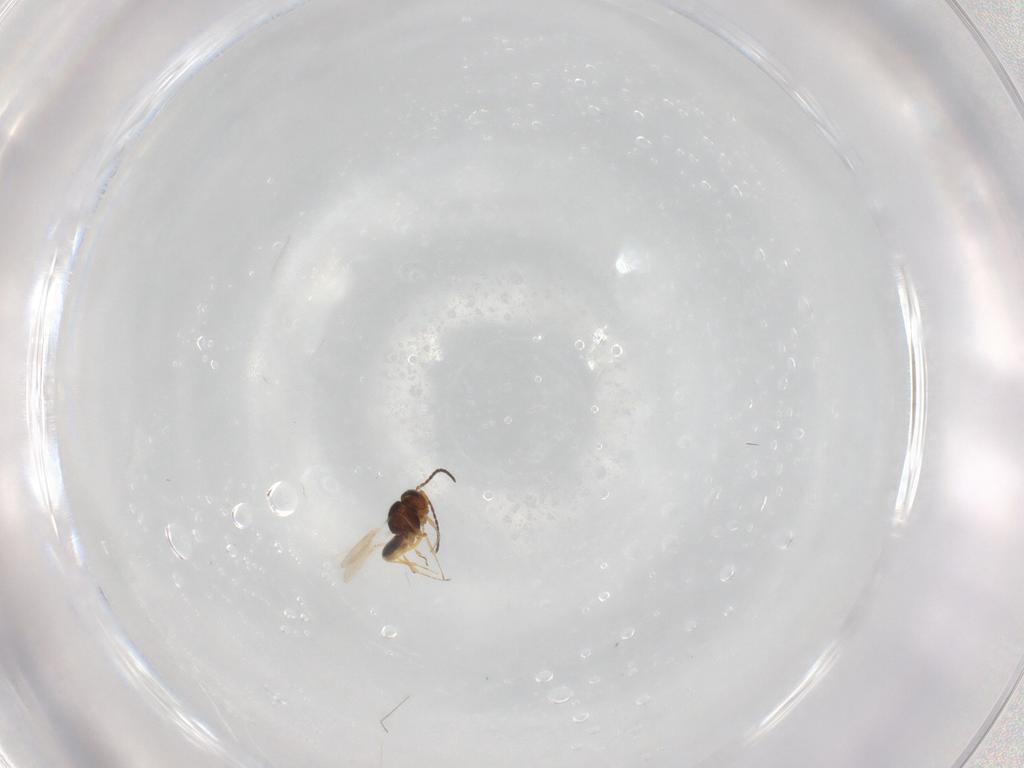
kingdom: Animalia
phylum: Arthropoda
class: Insecta
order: Hymenoptera
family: Scelionidae
